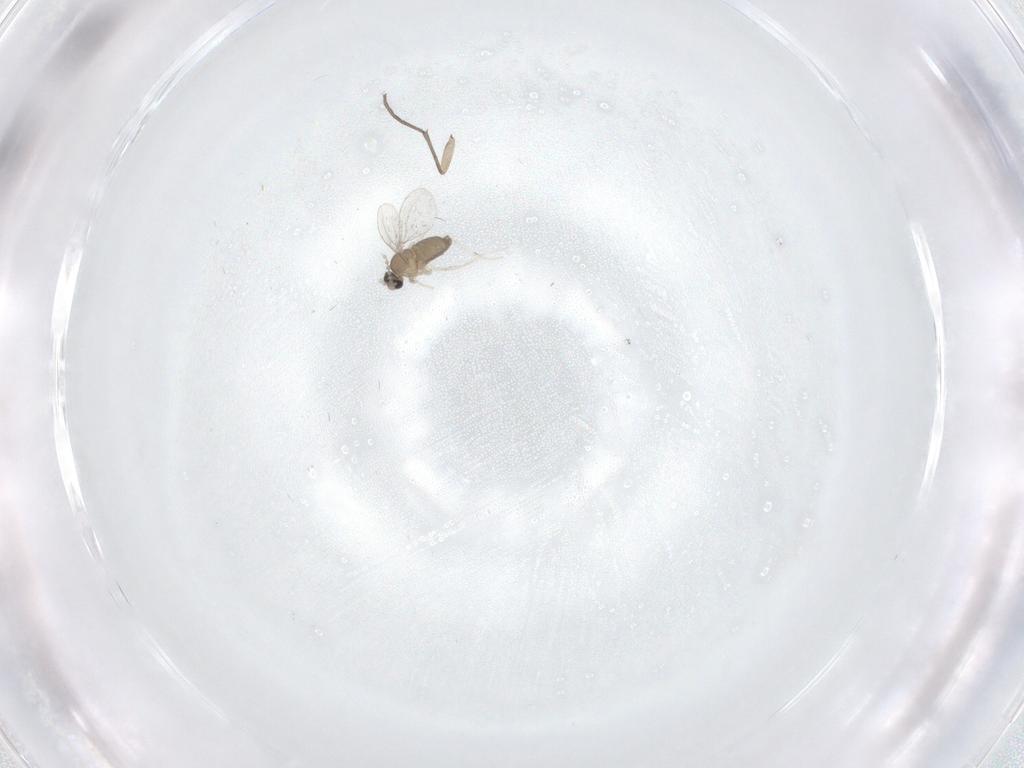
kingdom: Animalia
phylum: Arthropoda
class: Insecta
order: Diptera
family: Cecidomyiidae
